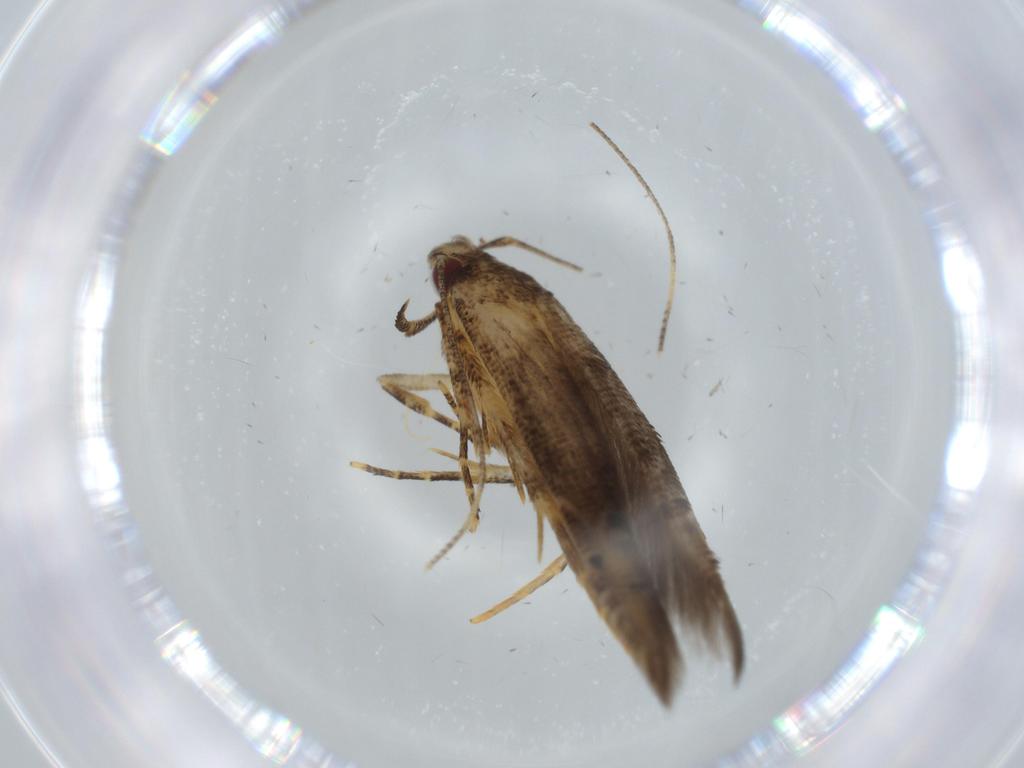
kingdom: Animalia
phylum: Arthropoda
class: Insecta
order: Lepidoptera
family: Cosmopterigidae
